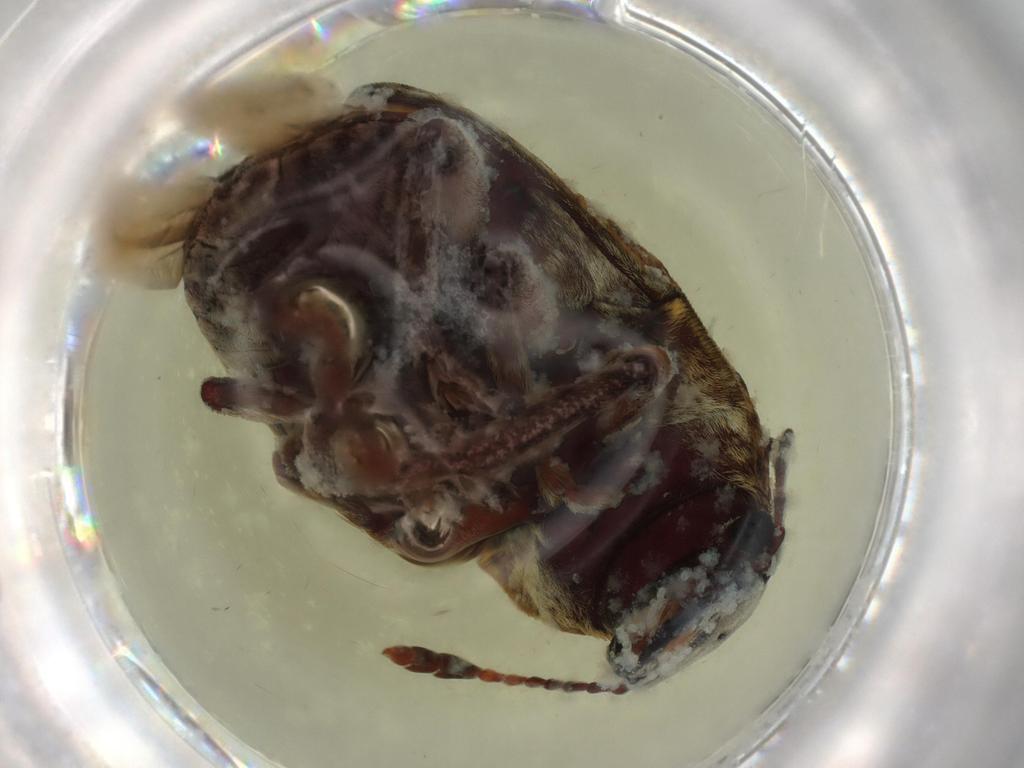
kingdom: Animalia
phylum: Arthropoda
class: Insecta
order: Coleoptera
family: Anthribidae
